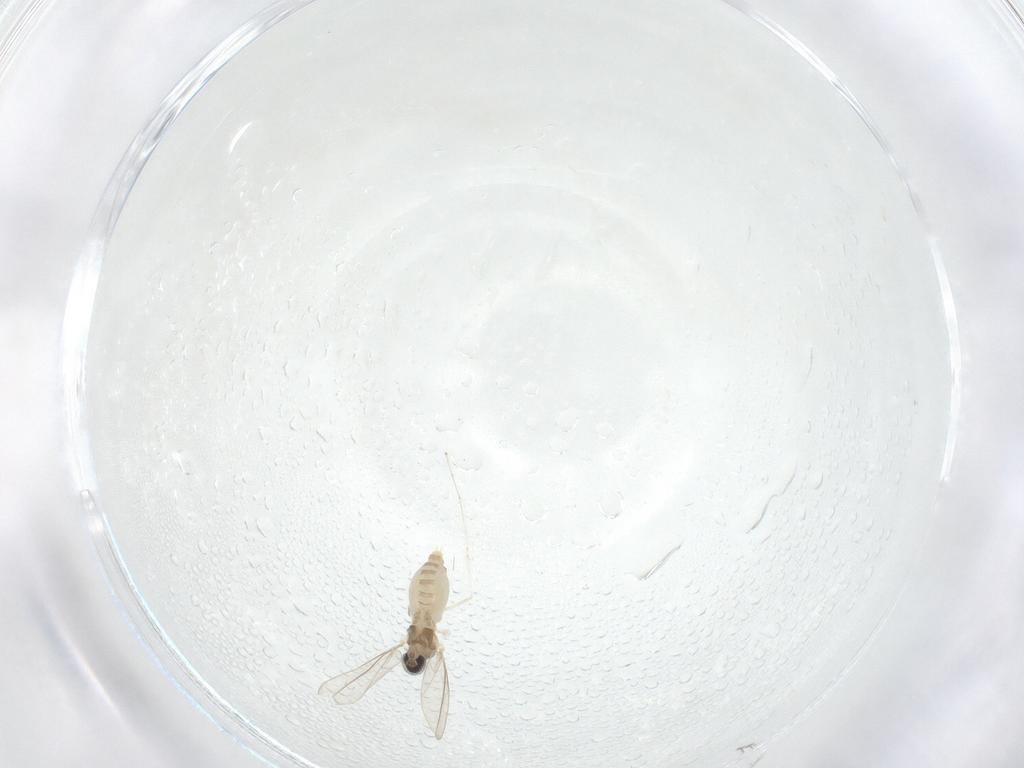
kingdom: Animalia
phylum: Arthropoda
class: Insecta
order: Diptera
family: Cecidomyiidae
